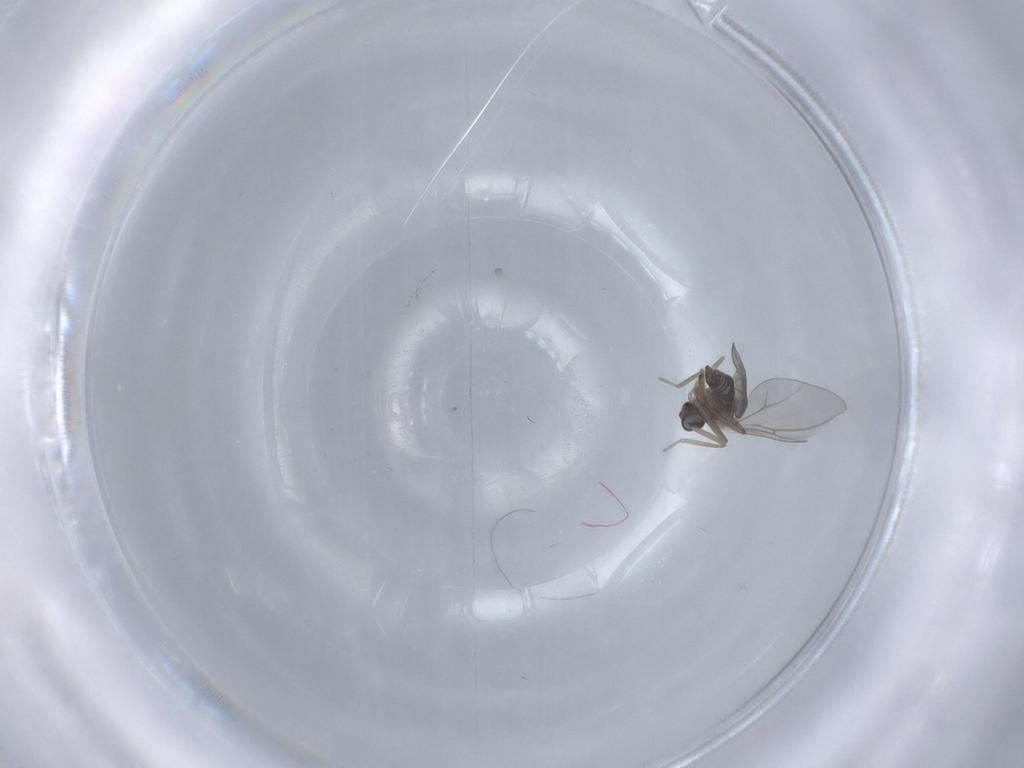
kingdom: Animalia
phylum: Arthropoda
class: Insecta
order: Diptera
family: Cecidomyiidae
